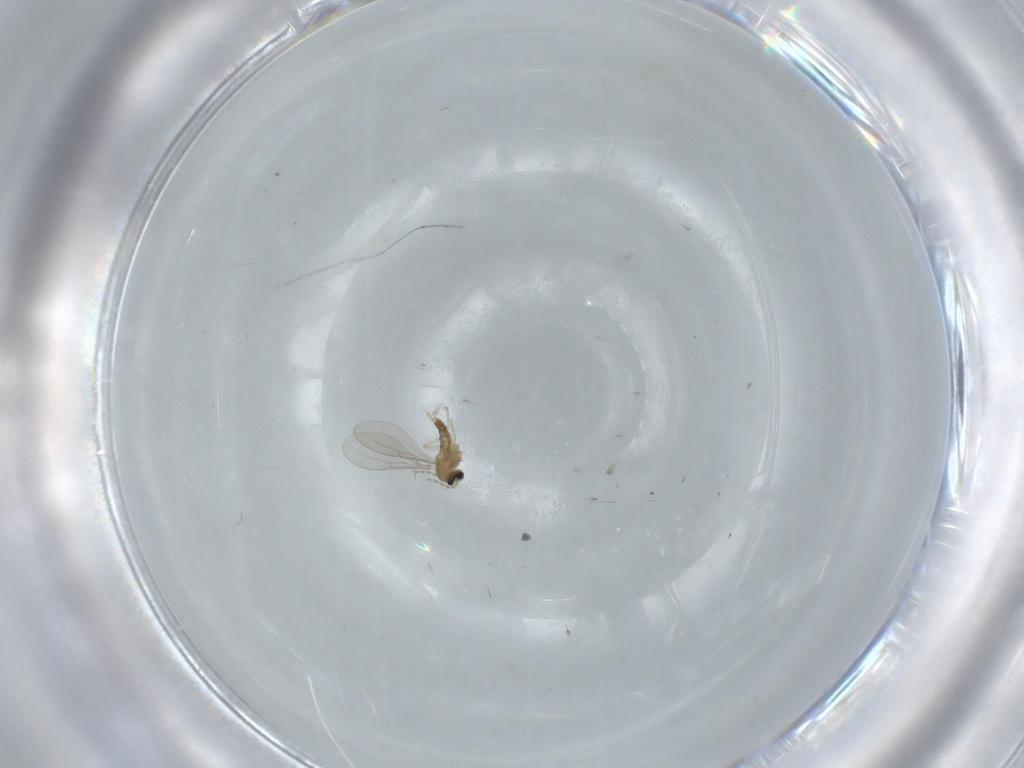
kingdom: Animalia
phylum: Arthropoda
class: Insecta
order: Diptera
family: Cecidomyiidae
